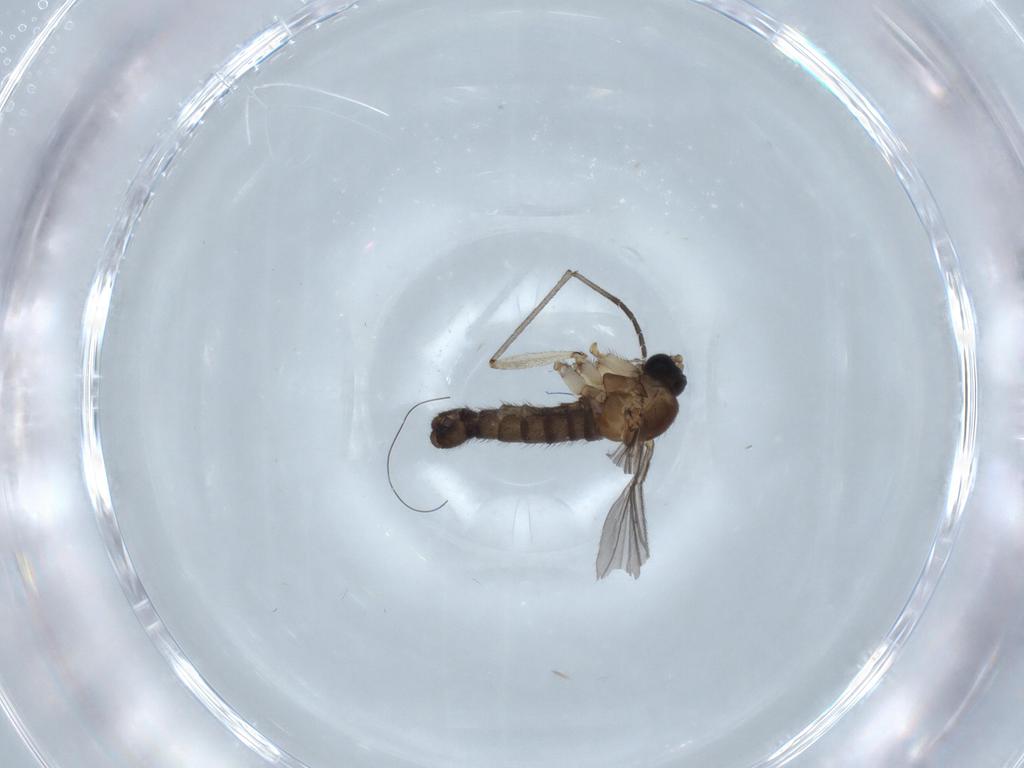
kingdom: Animalia
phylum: Arthropoda
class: Insecta
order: Diptera
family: Sciaridae
